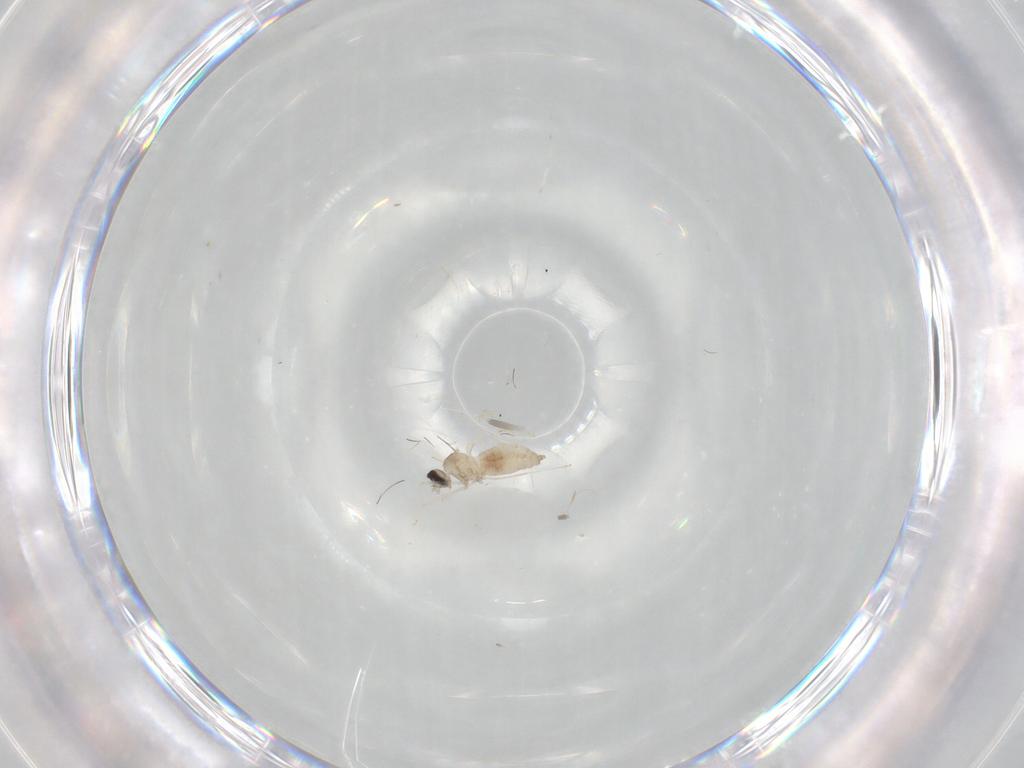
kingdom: Animalia
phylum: Arthropoda
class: Insecta
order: Diptera
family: Cecidomyiidae
